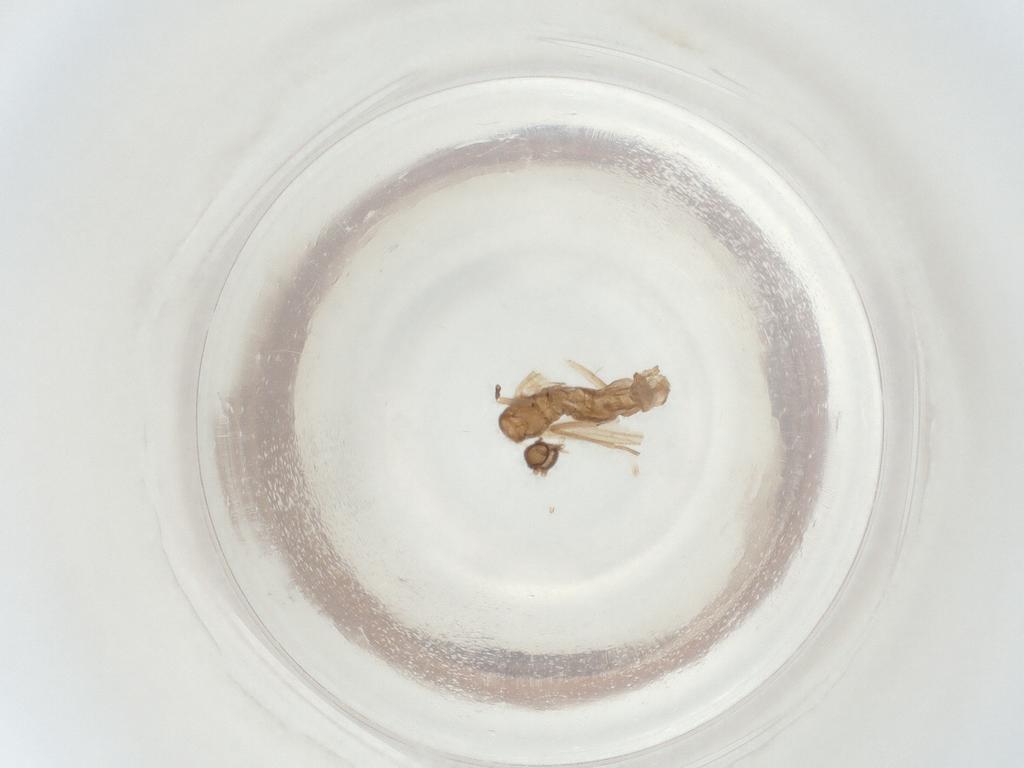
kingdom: Animalia
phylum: Arthropoda
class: Insecta
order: Diptera
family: Sciaridae
